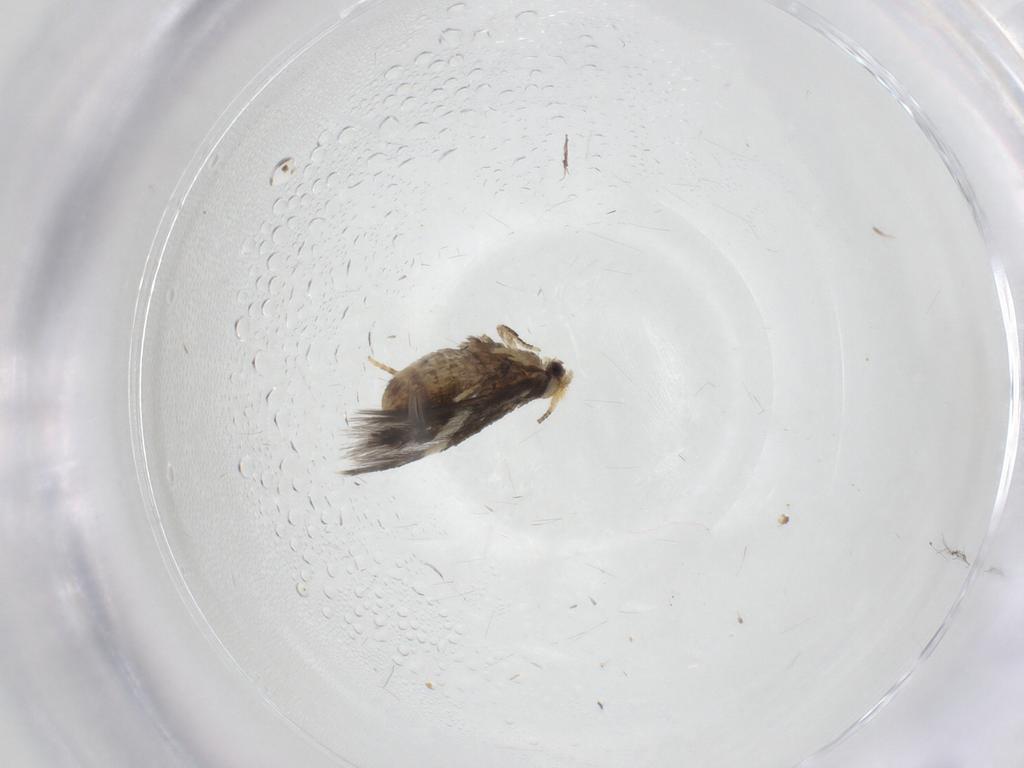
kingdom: Animalia
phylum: Arthropoda
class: Insecta
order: Lepidoptera
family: Nepticulidae
